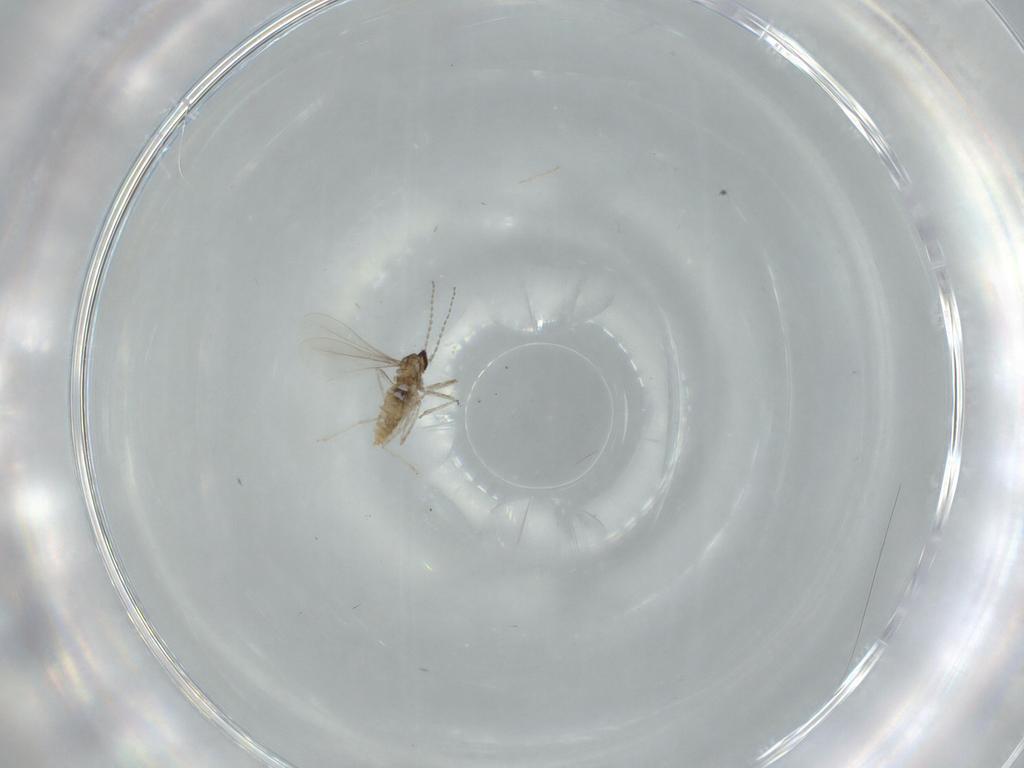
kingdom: Animalia
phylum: Arthropoda
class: Insecta
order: Diptera
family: Cecidomyiidae
